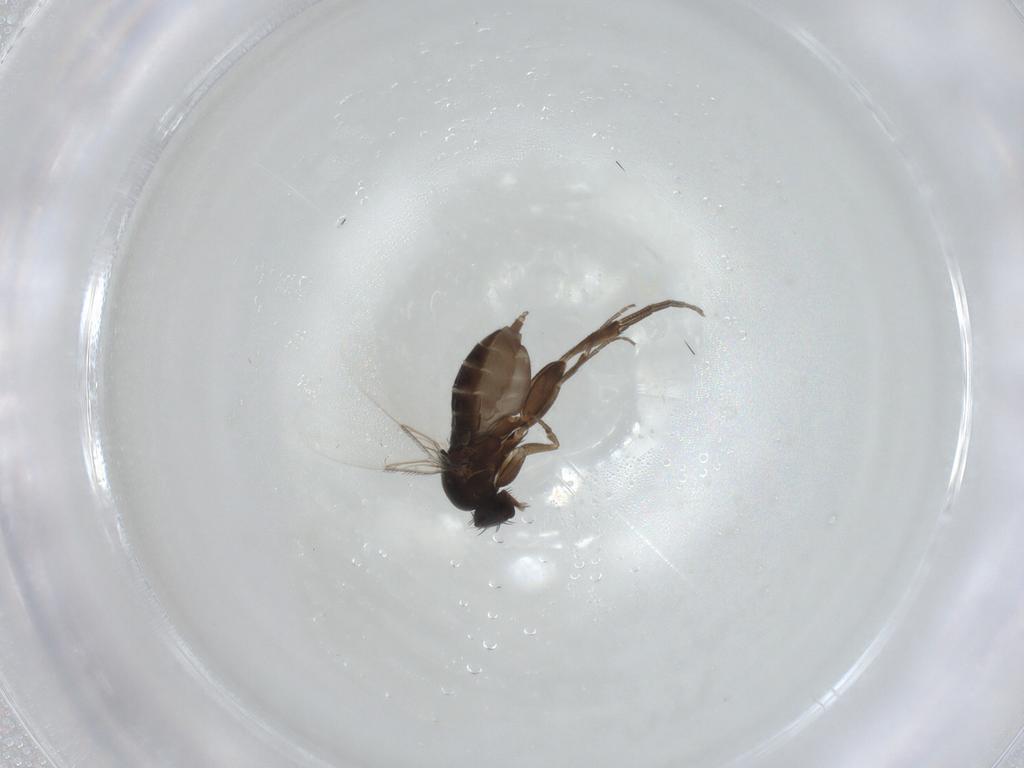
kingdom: Animalia
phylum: Arthropoda
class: Insecta
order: Diptera
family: Phoridae
